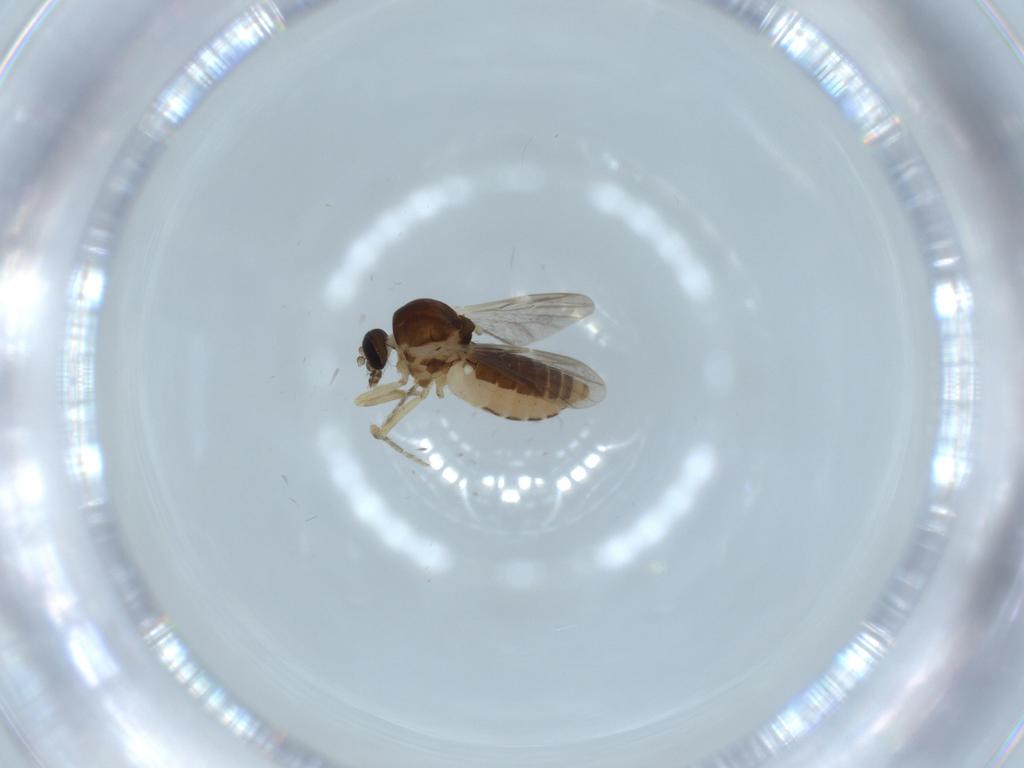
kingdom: Animalia
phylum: Arthropoda
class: Insecta
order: Diptera
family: Ceratopogonidae
